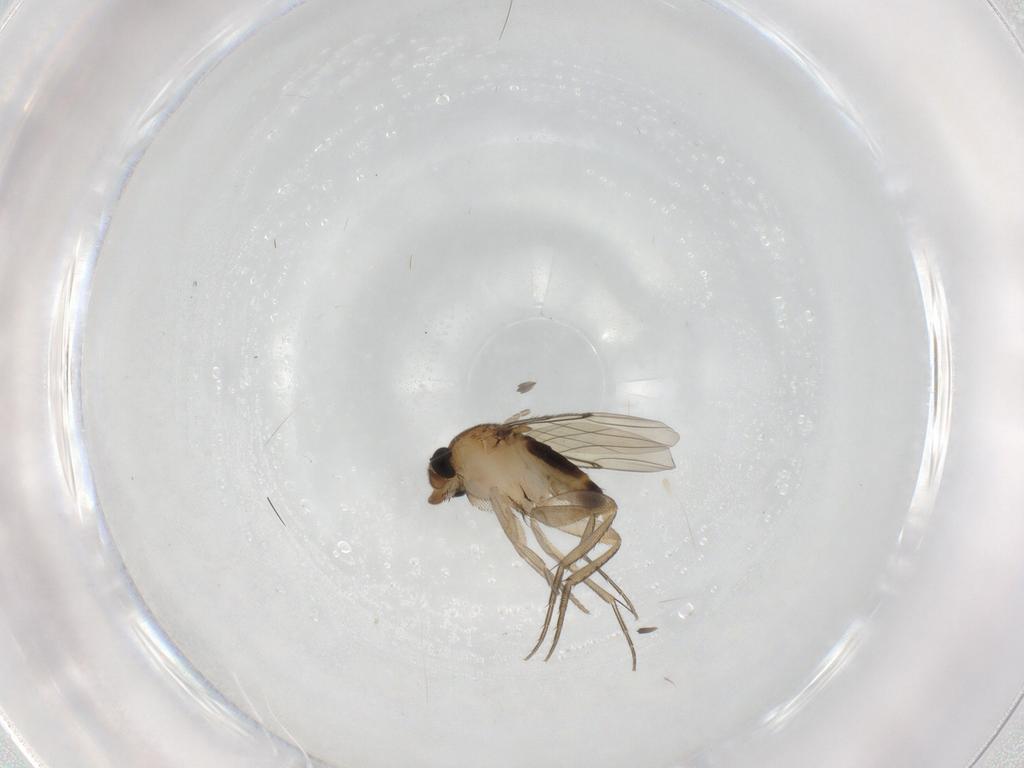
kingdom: Animalia
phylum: Arthropoda
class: Insecta
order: Diptera
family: Phoridae
